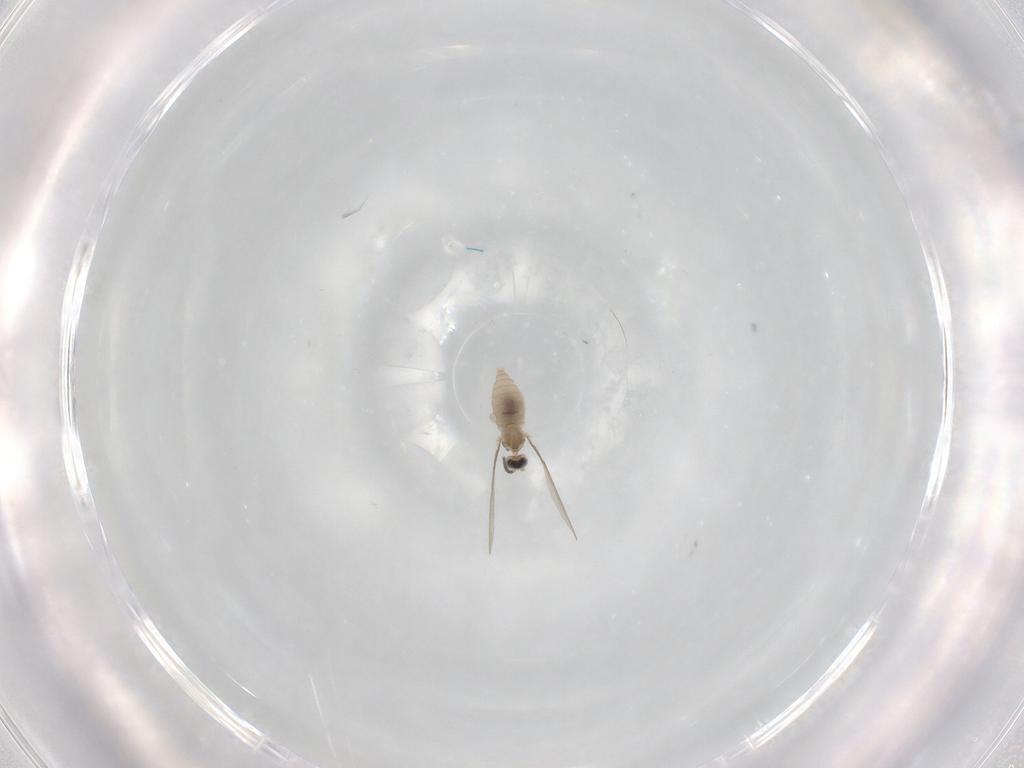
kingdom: Animalia
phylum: Arthropoda
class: Insecta
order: Diptera
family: Cecidomyiidae
